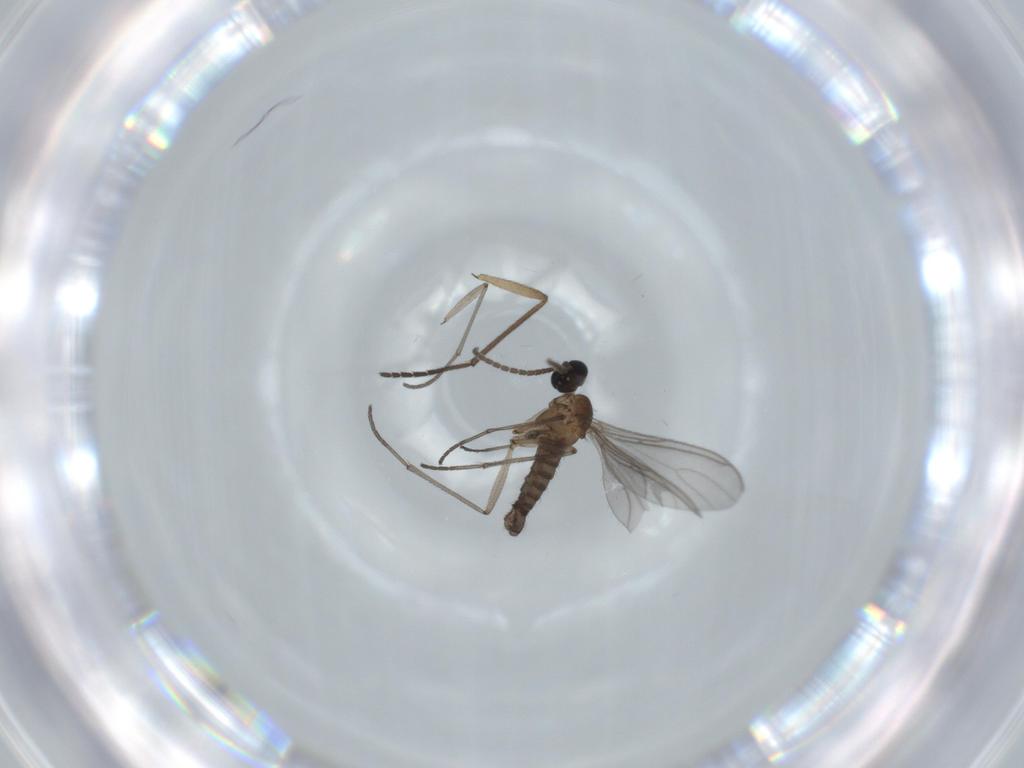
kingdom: Animalia
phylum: Arthropoda
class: Insecta
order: Diptera
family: Sciaridae
